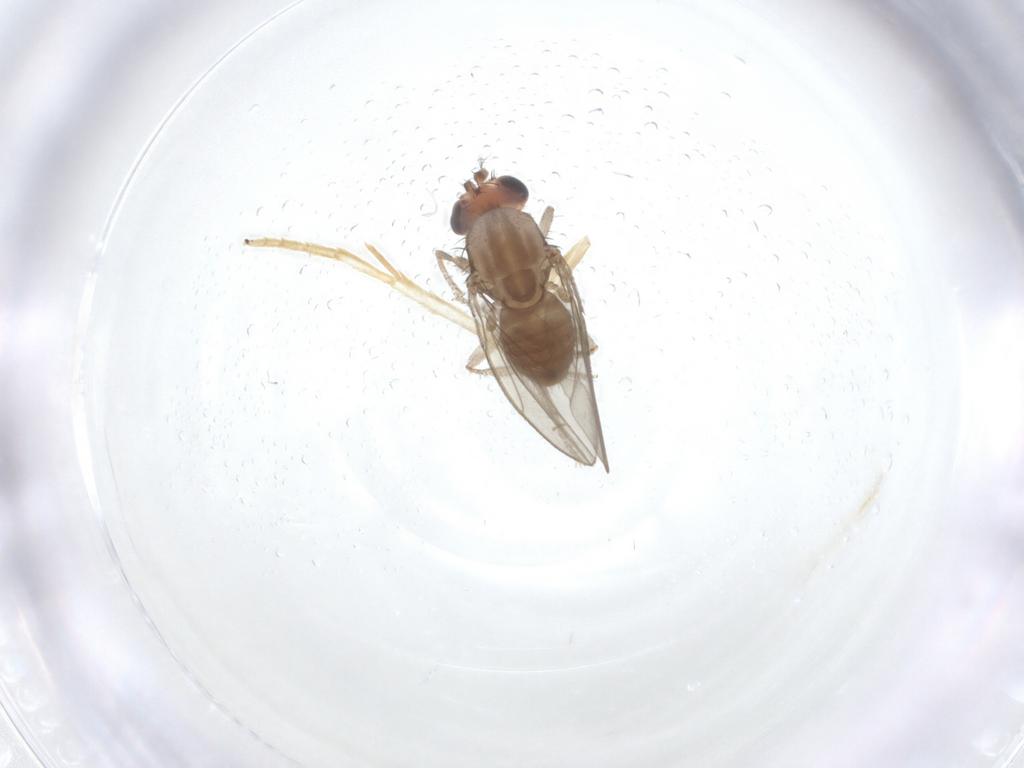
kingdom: Animalia
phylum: Arthropoda
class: Insecta
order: Diptera
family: Drosophilidae
